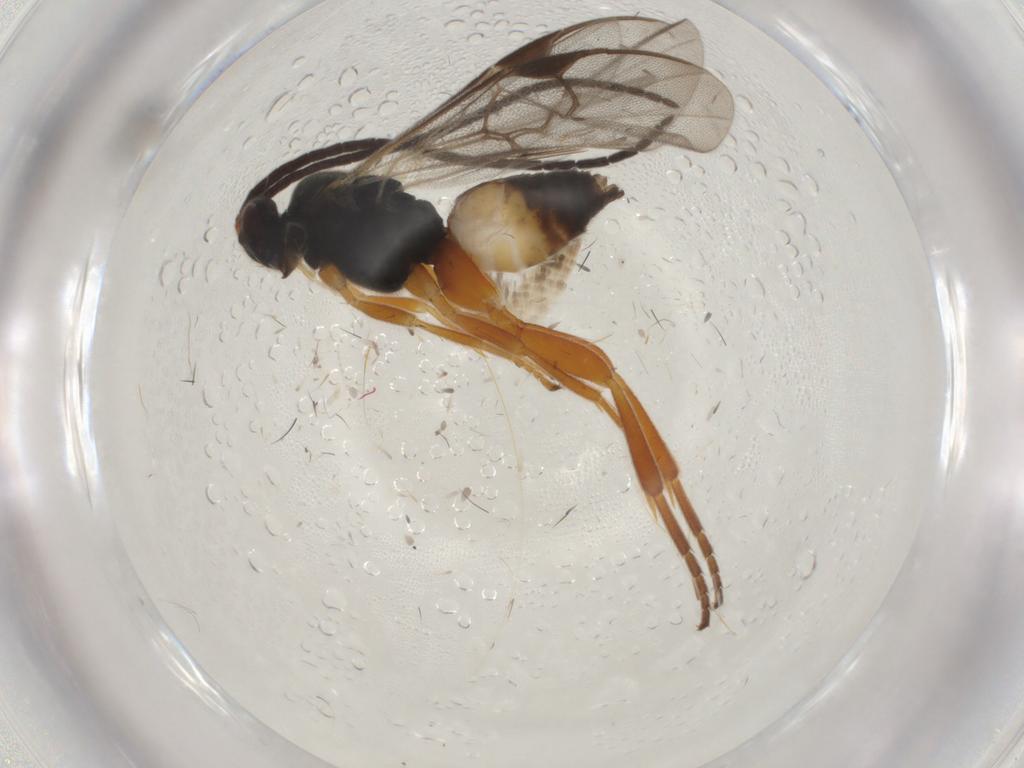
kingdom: Animalia
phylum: Arthropoda
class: Insecta
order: Hymenoptera
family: Braconidae
